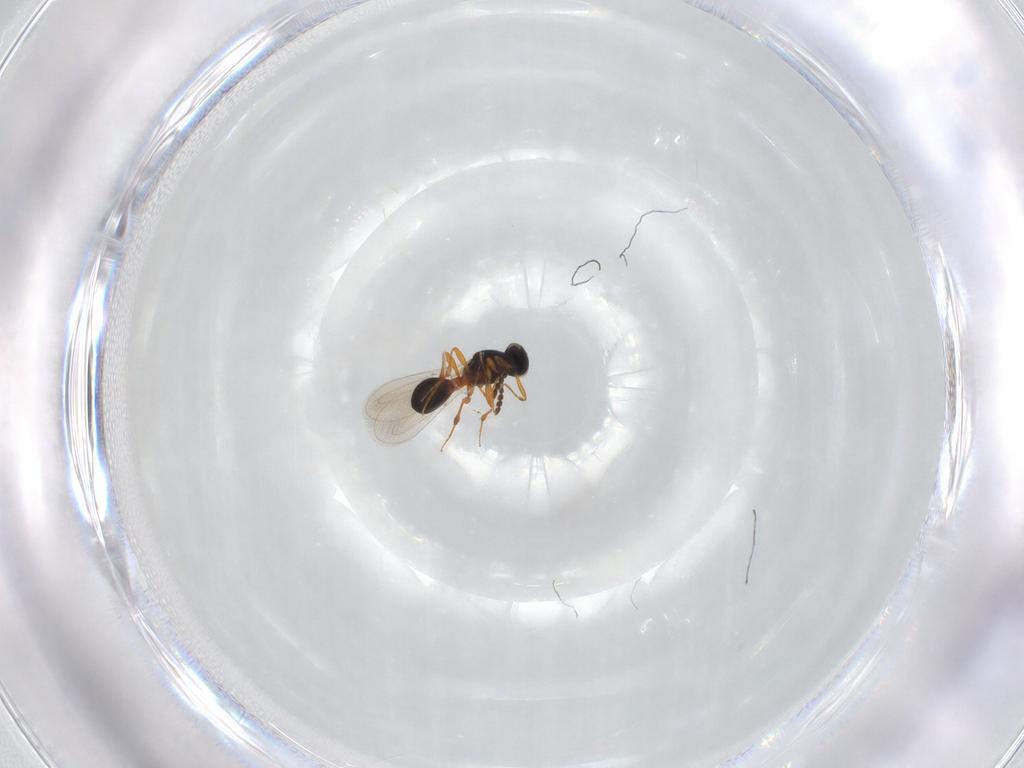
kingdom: Animalia
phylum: Arthropoda
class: Insecta
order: Hymenoptera
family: Platygastridae
